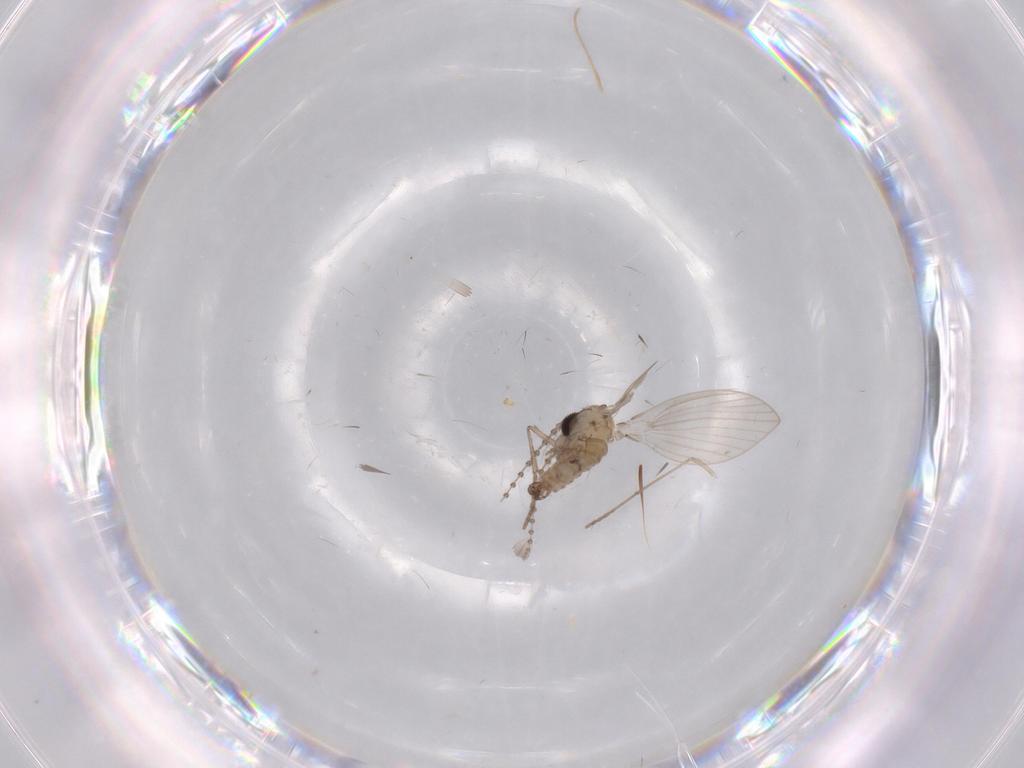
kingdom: Animalia
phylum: Arthropoda
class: Insecta
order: Diptera
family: Psychodidae
